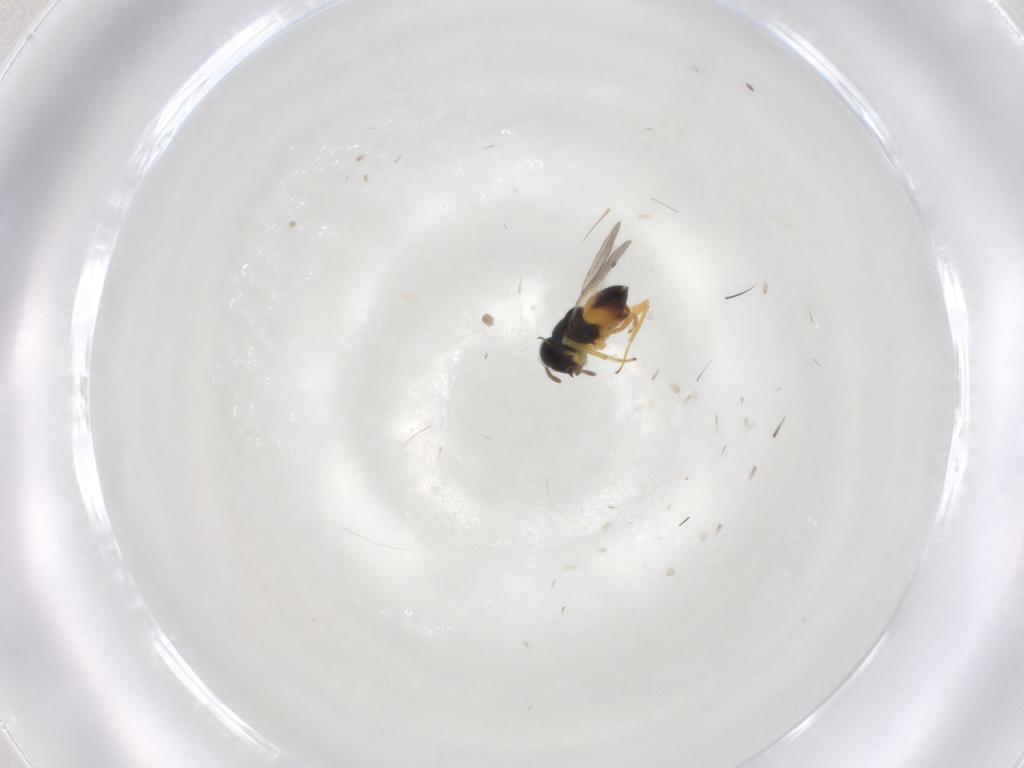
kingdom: Animalia
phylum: Arthropoda
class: Insecta
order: Hymenoptera
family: Encyrtidae
